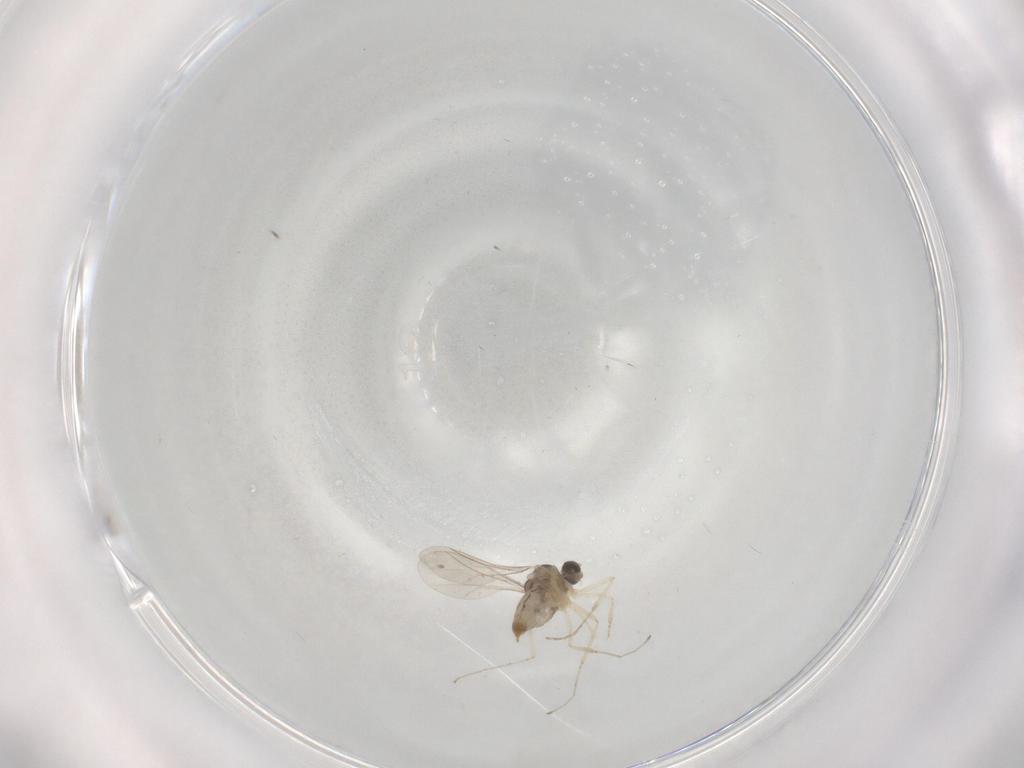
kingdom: Animalia
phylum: Arthropoda
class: Insecta
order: Diptera
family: Cecidomyiidae
